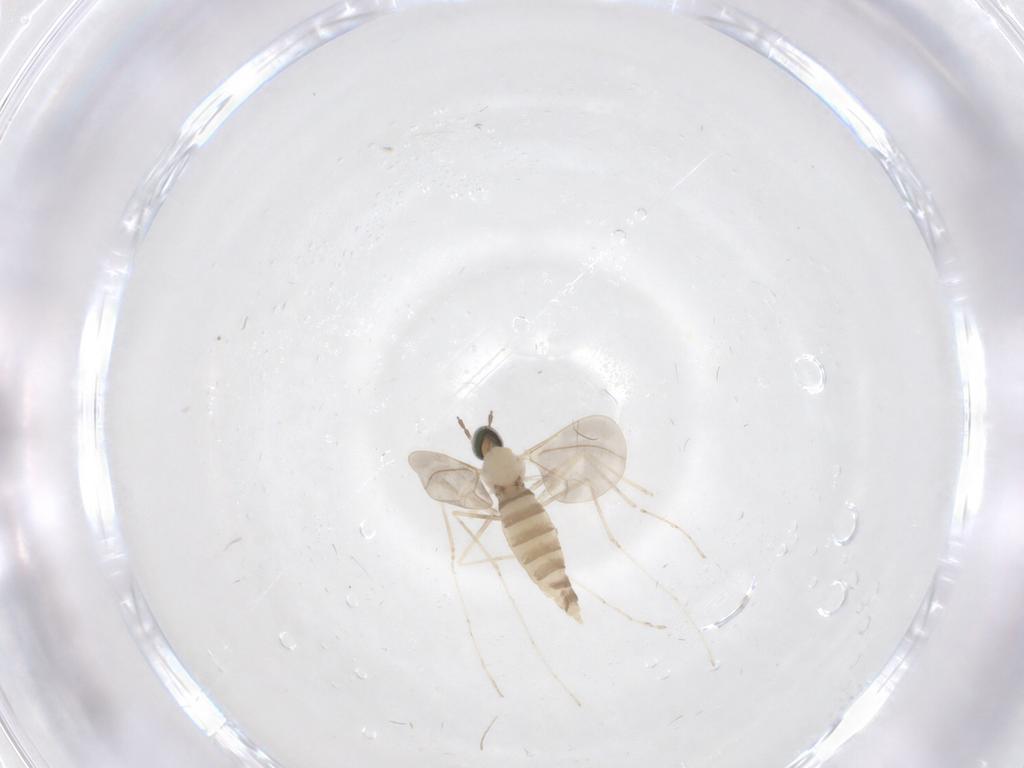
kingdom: Animalia
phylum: Arthropoda
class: Insecta
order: Diptera
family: Cecidomyiidae
